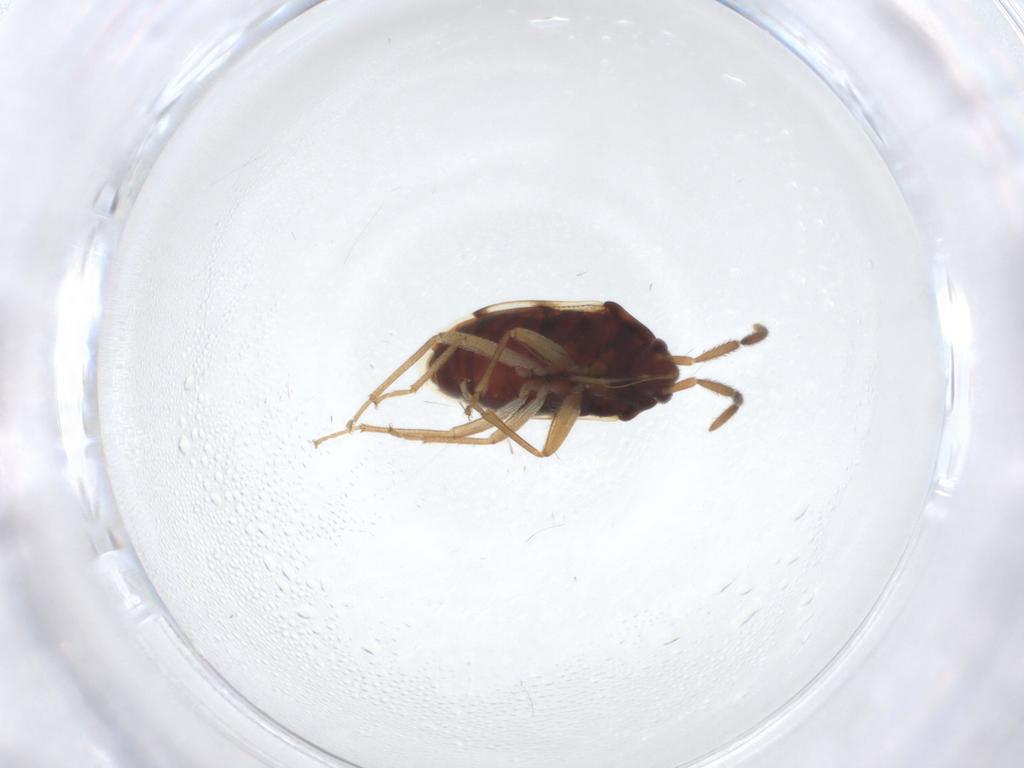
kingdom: Animalia
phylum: Arthropoda
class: Insecta
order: Hemiptera
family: Rhyparochromidae
